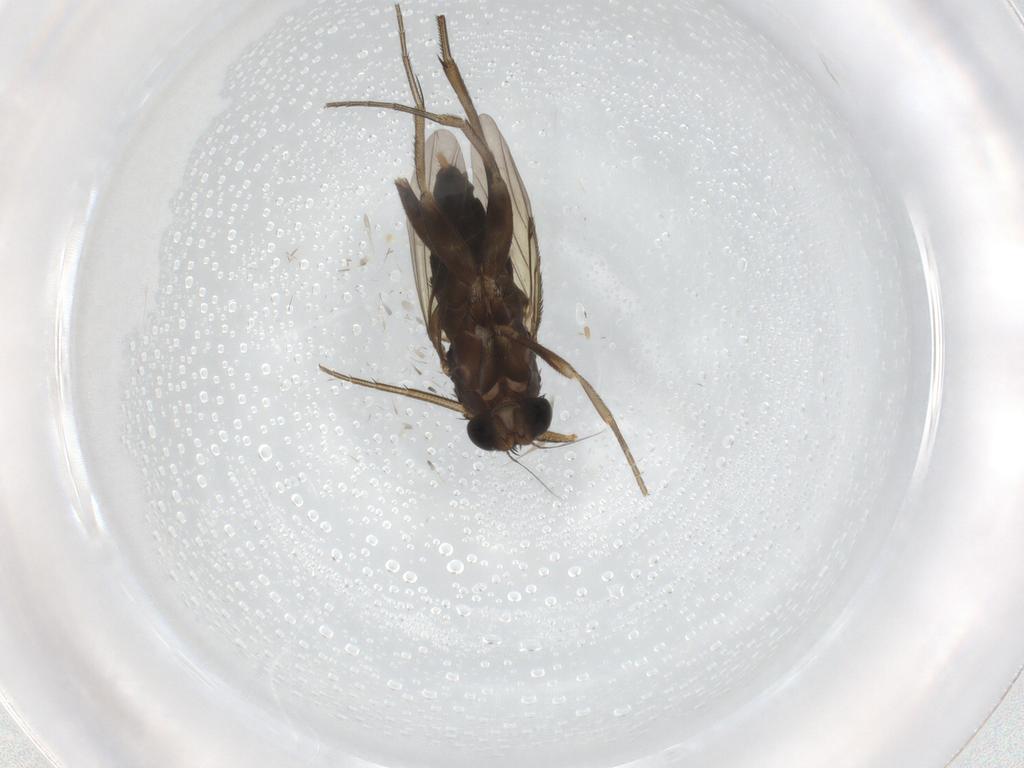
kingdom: Animalia
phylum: Arthropoda
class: Insecta
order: Diptera
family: Phoridae
